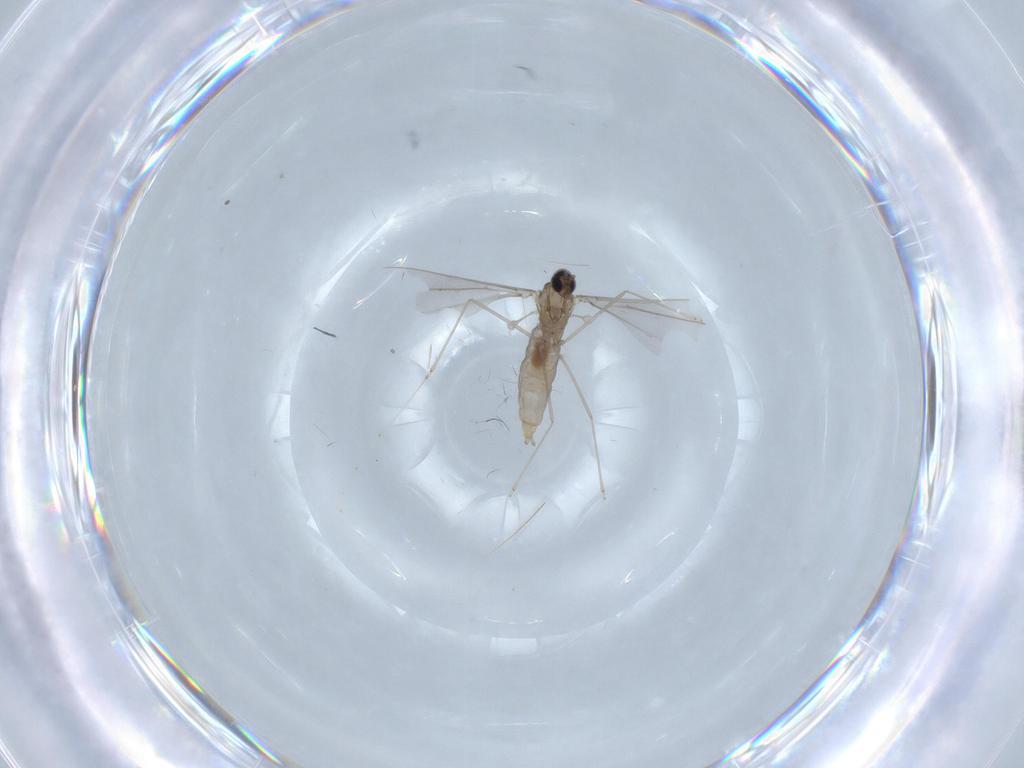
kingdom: Animalia
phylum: Arthropoda
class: Insecta
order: Diptera
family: Cecidomyiidae
